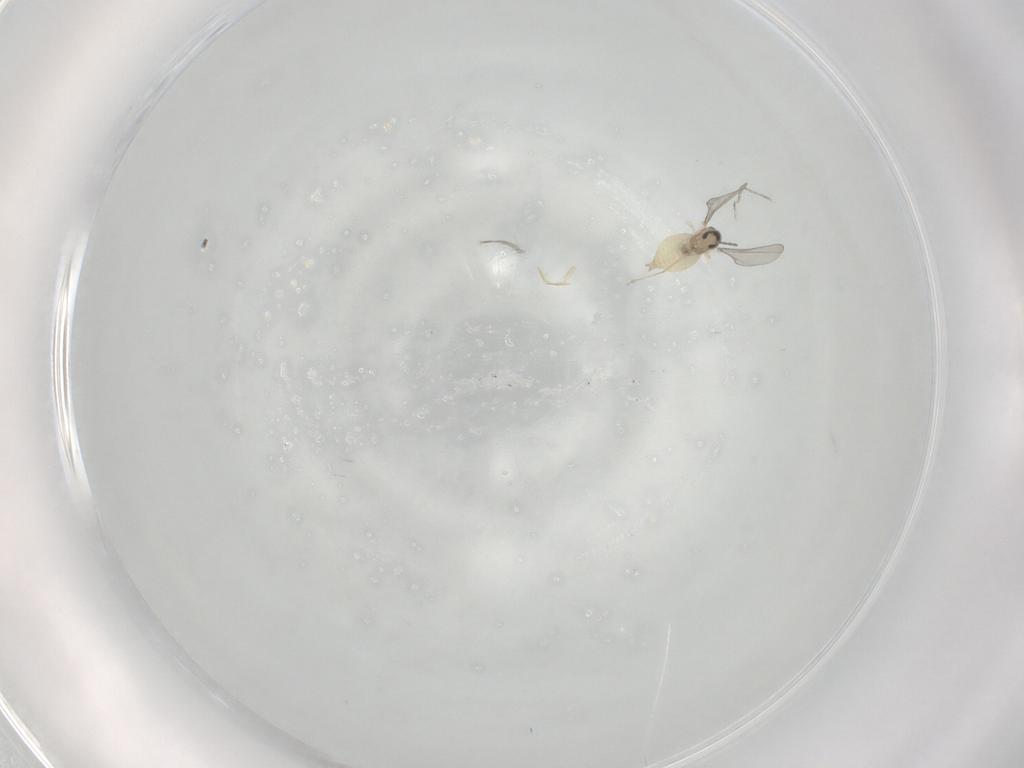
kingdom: Animalia
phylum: Arthropoda
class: Insecta
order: Diptera
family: Cecidomyiidae
